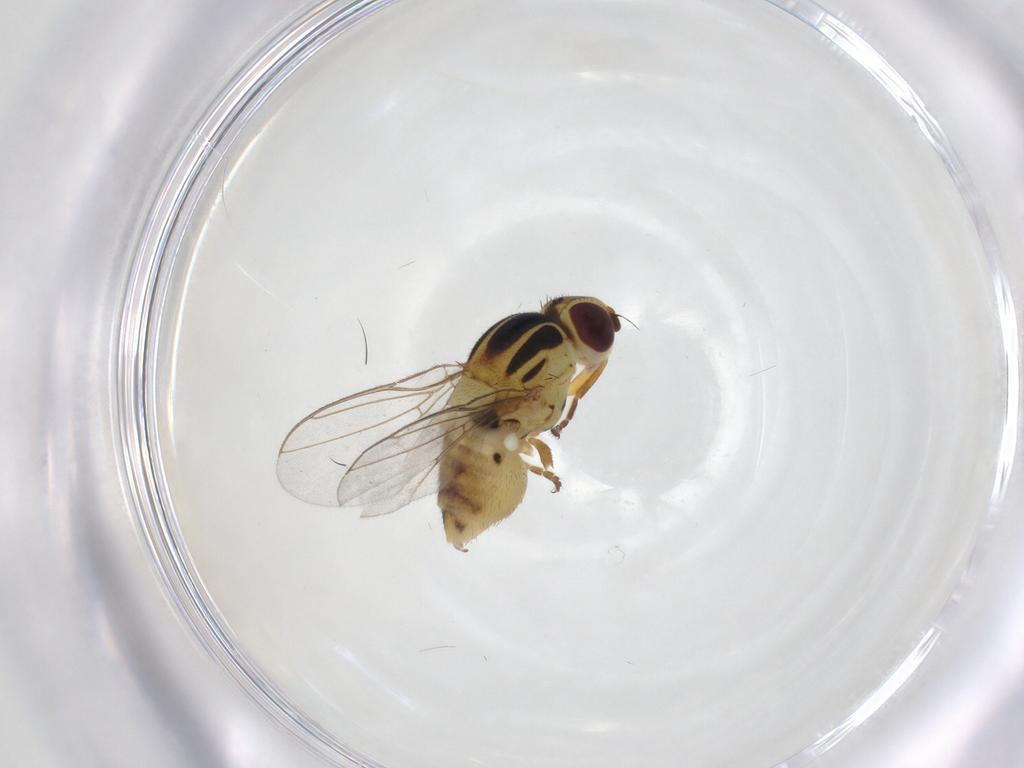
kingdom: Animalia
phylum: Arthropoda
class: Insecta
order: Diptera
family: Chloropidae
